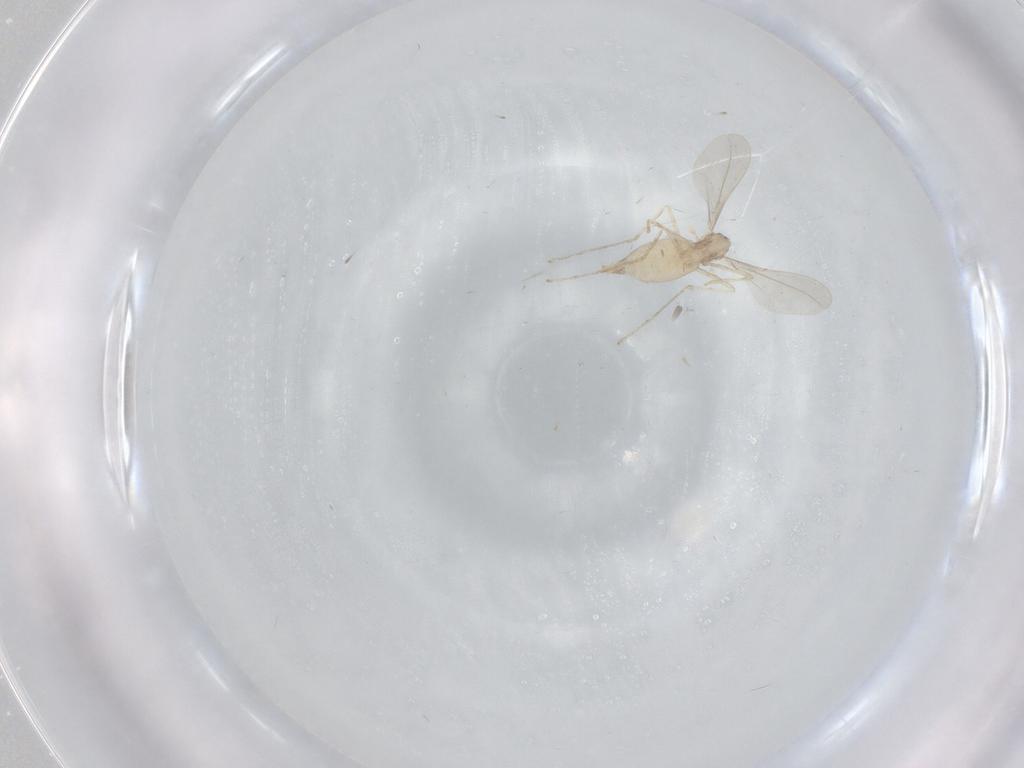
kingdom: Animalia
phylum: Arthropoda
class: Insecta
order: Diptera
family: Cecidomyiidae
